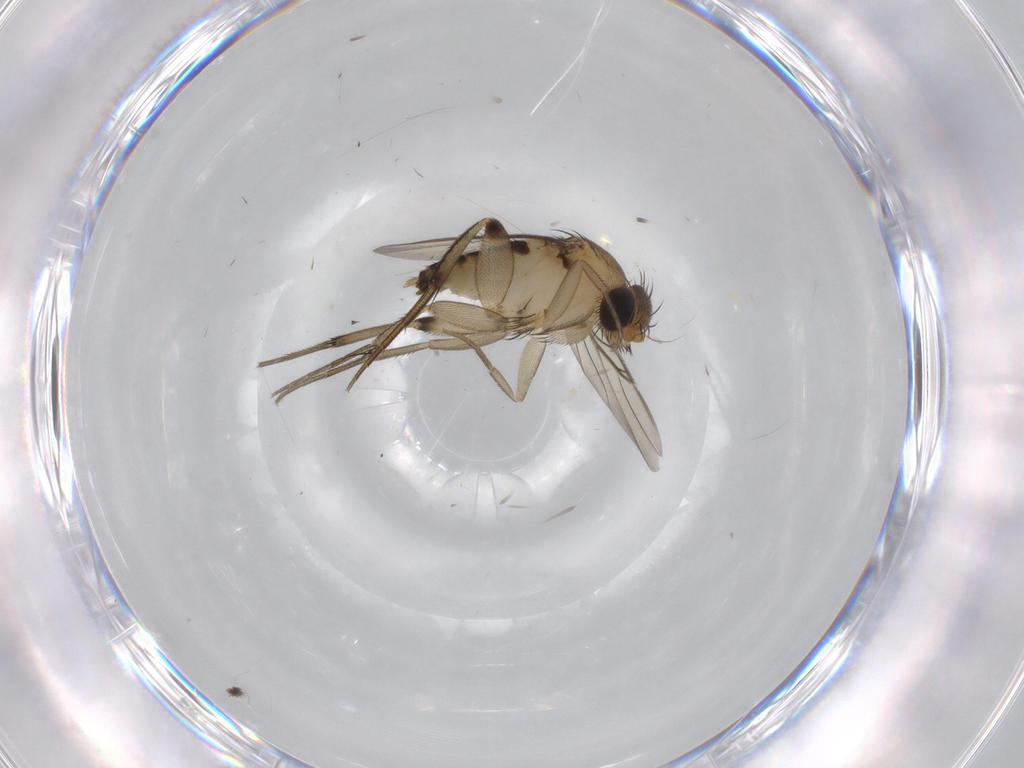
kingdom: Animalia
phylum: Arthropoda
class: Insecta
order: Diptera
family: Phoridae
